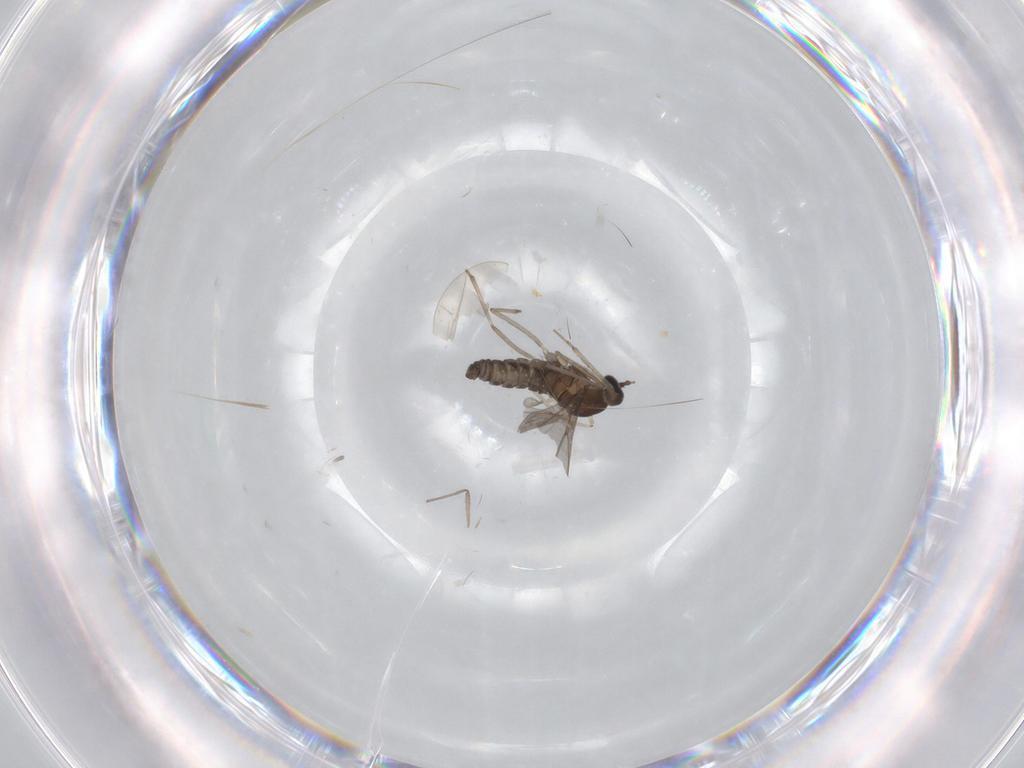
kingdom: Animalia
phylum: Arthropoda
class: Insecta
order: Diptera
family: Cecidomyiidae
